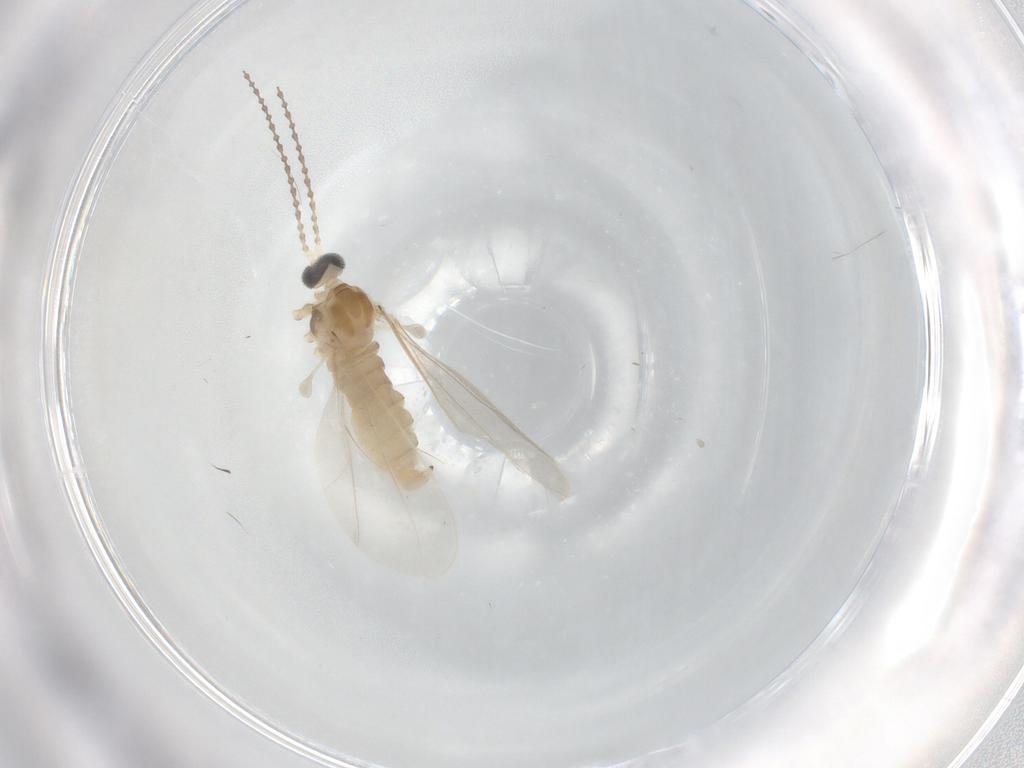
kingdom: Animalia
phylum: Arthropoda
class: Insecta
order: Diptera
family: Cecidomyiidae
